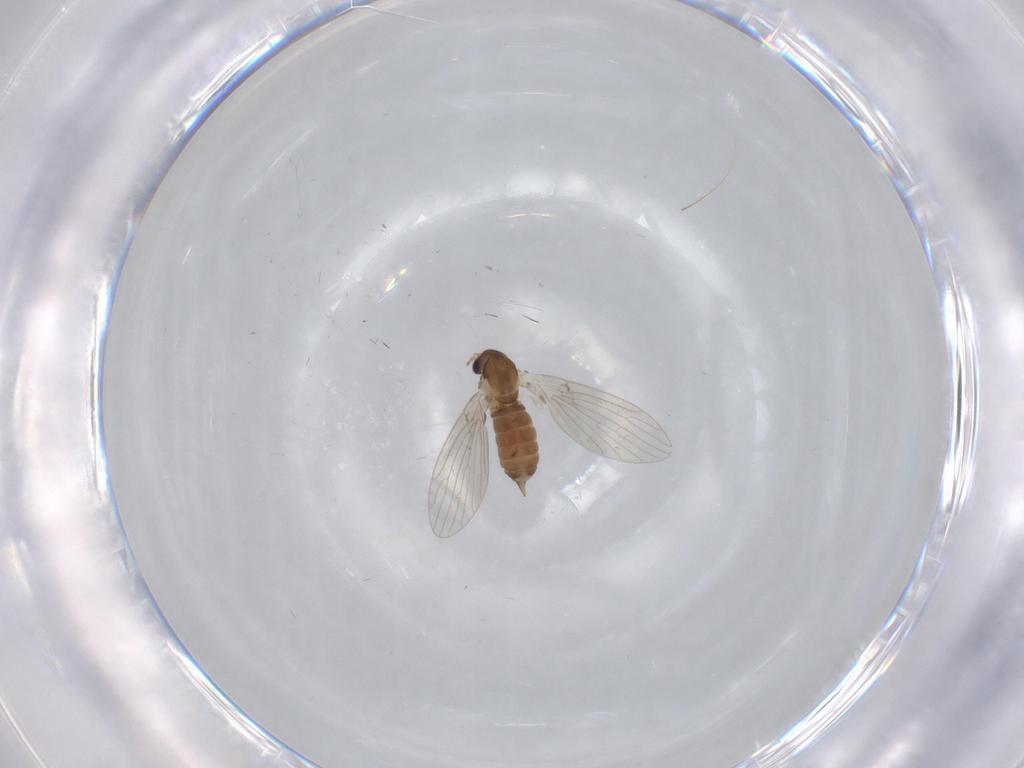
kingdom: Animalia
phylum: Arthropoda
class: Insecta
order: Diptera
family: Psychodidae
